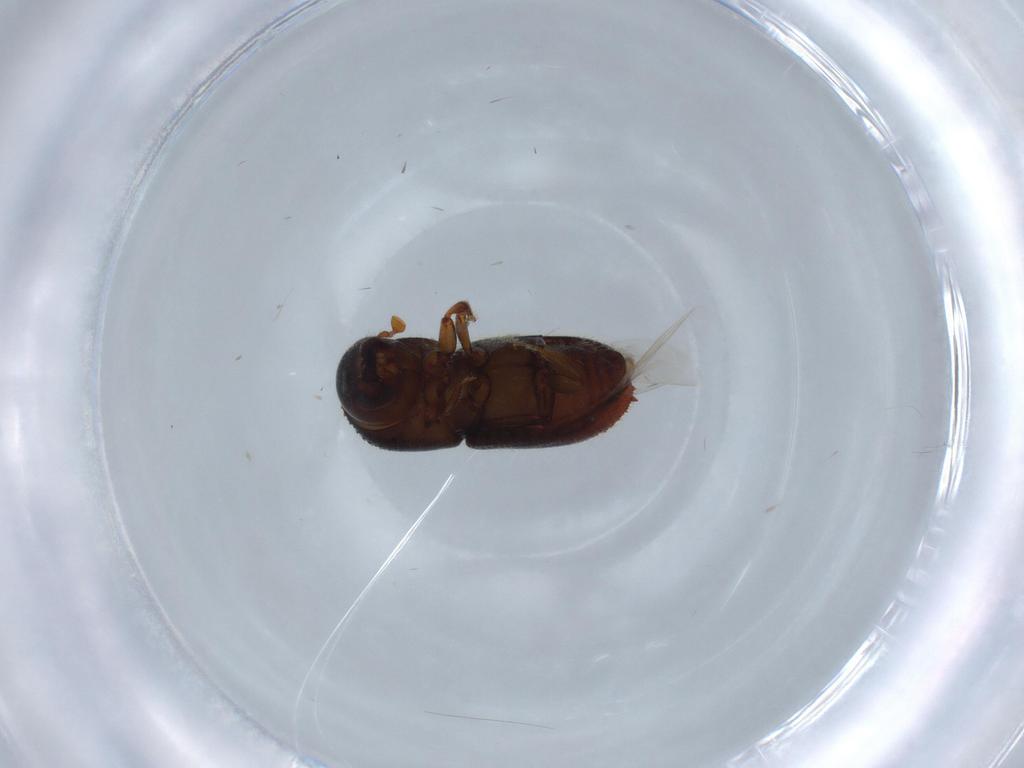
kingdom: Animalia
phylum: Arthropoda
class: Insecta
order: Coleoptera
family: Curculionidae
